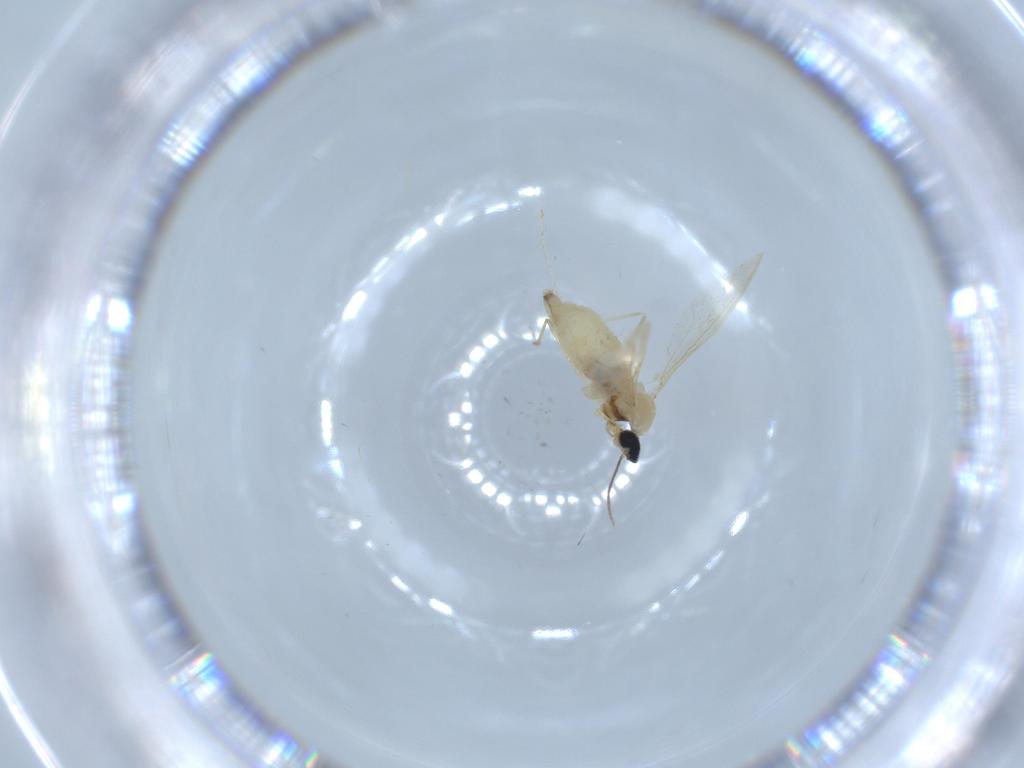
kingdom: Animalia
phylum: Arthropoda
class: Insecta
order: Diptera
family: Cecidomyiidae
